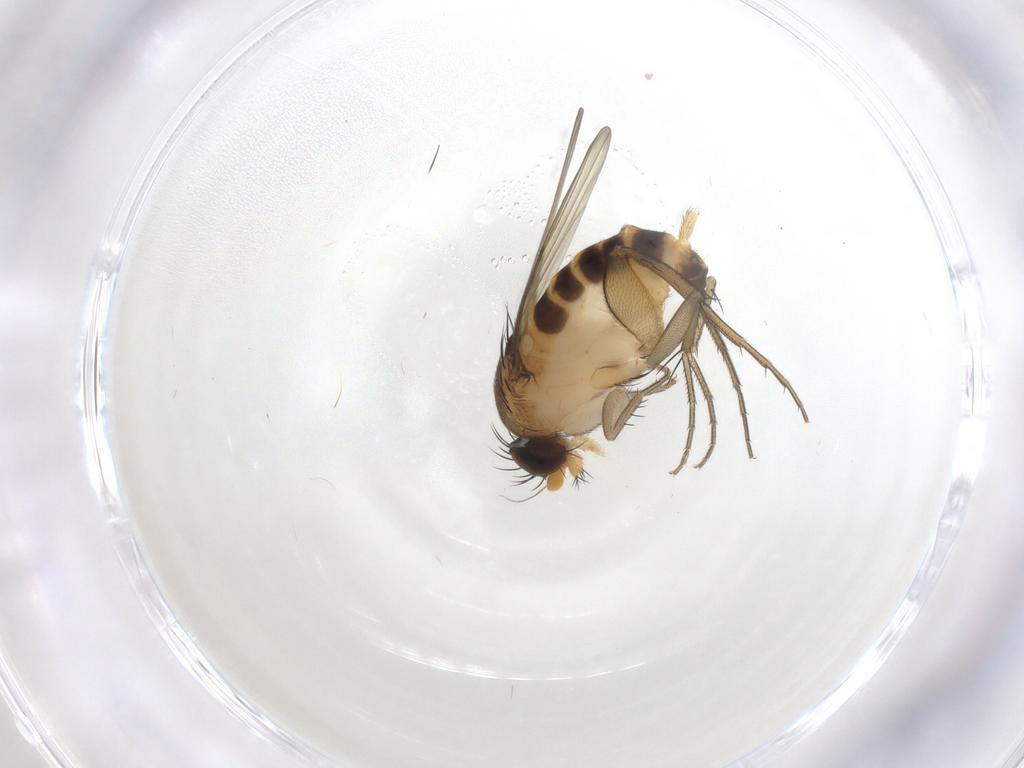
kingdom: Animalia
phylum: Arthropoda
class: Insecta
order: Diptera
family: Phoridae
